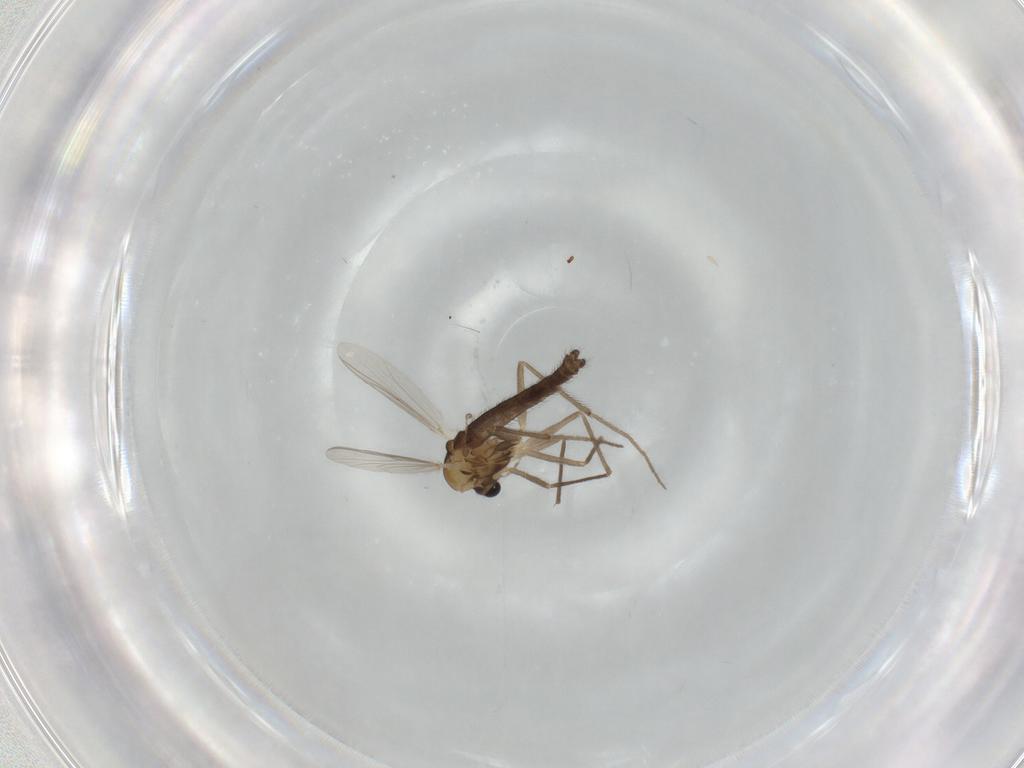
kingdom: Animalia
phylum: Arthropoda
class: Insecta
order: Diptera
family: Chironomidae
